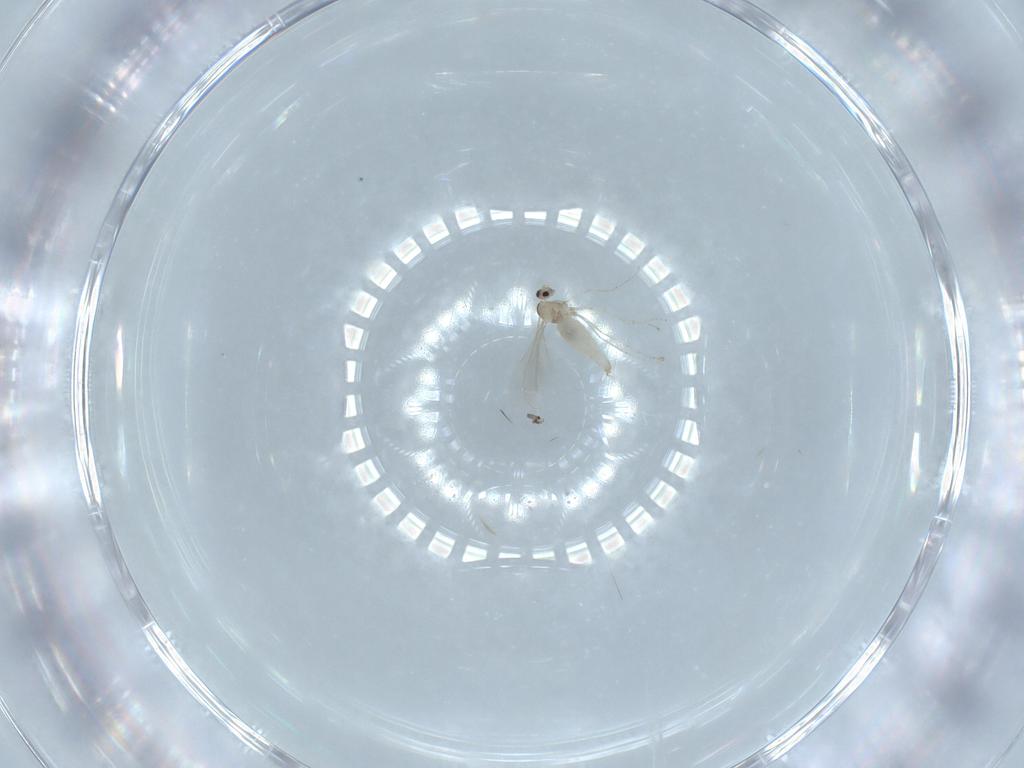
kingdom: Animalia
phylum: Arthropoda
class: Insecta
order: Diptera
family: Cecidomyiidae
